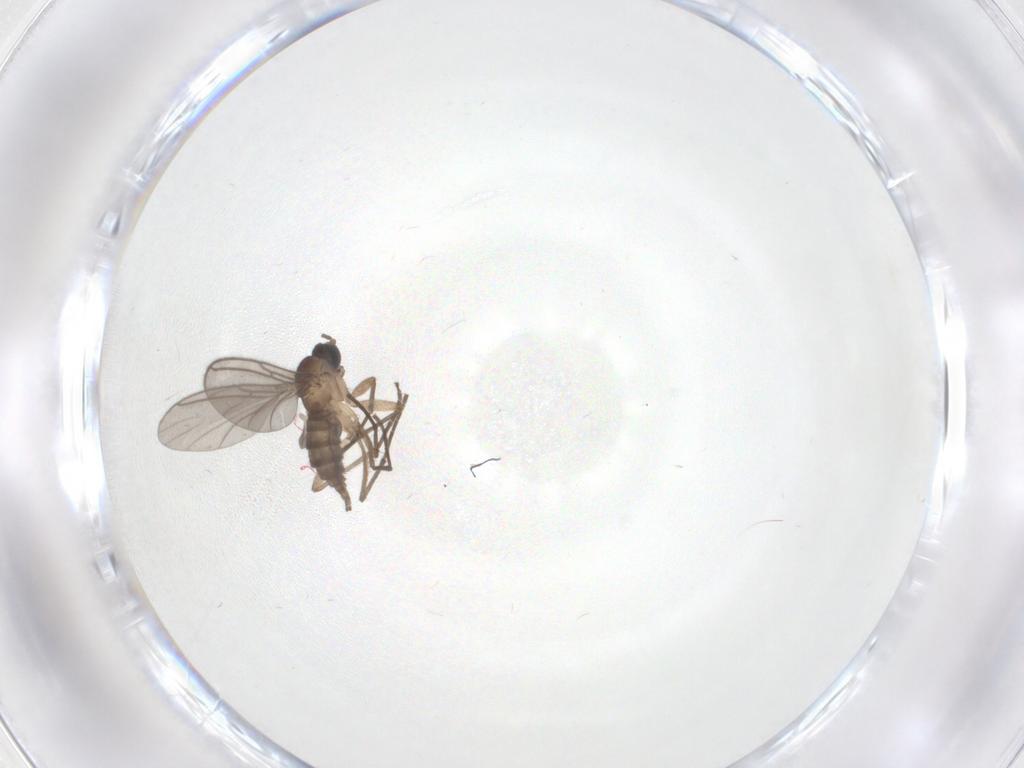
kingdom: Animalia
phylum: Arthropoda
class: Insecta
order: Diptera
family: Sciaridae
